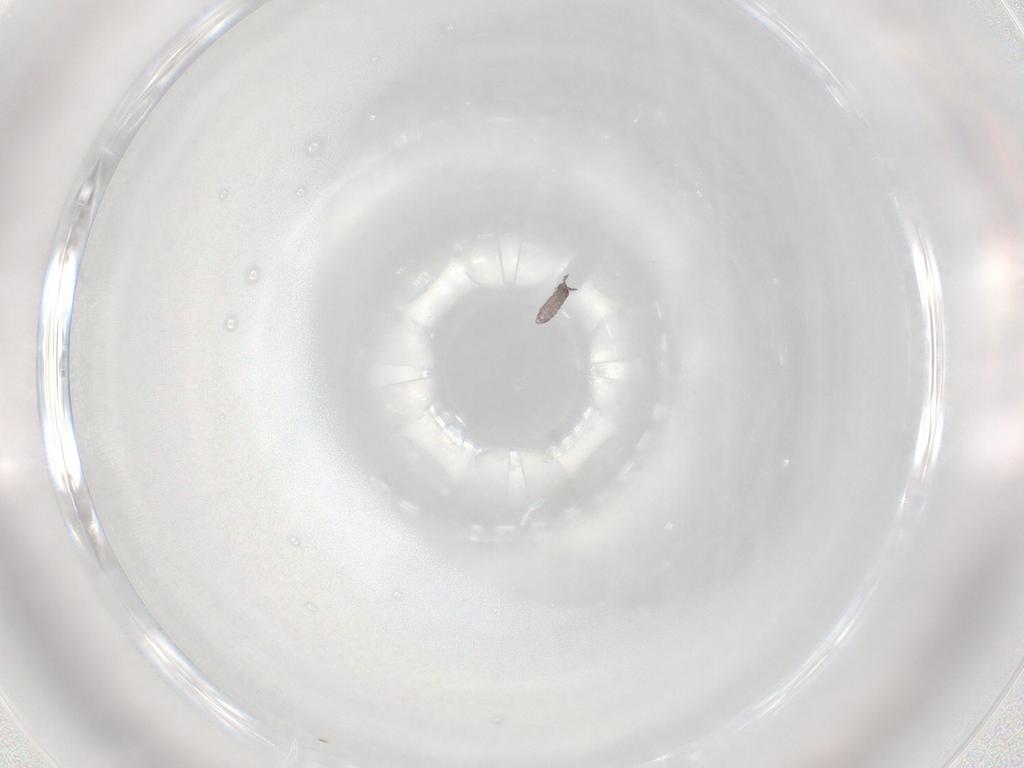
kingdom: Animalia
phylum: Arthropoda
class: Collembola
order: Poduromorpha
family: Hypogastruridae
